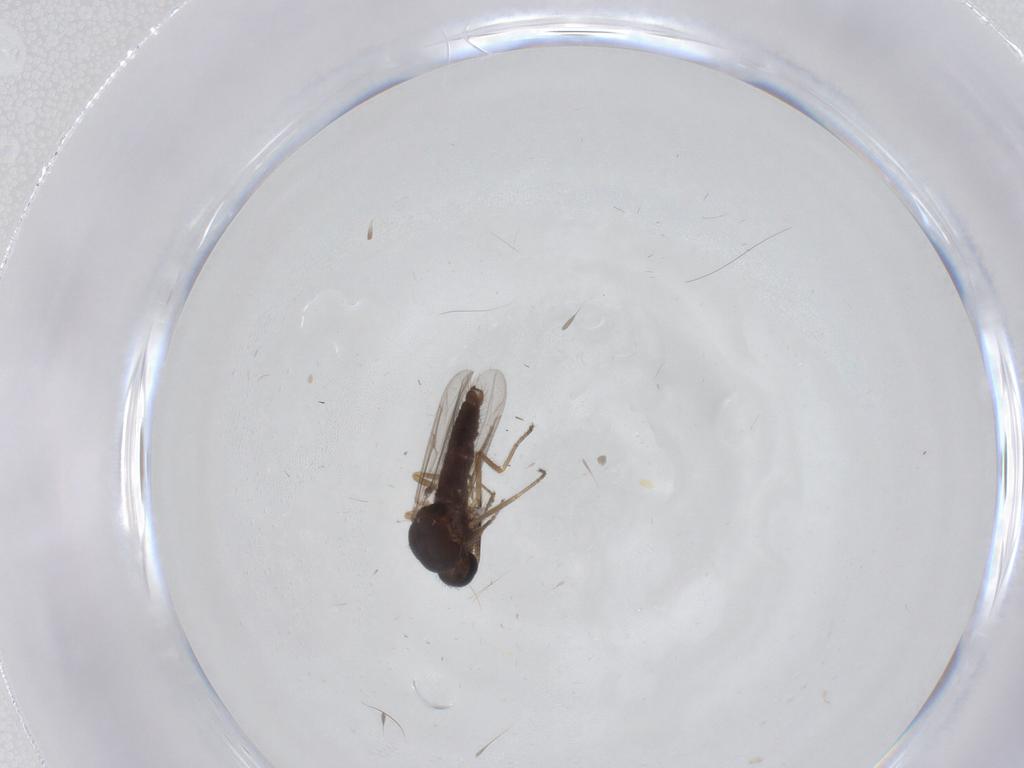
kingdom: Animalia
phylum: Arthropoda
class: Insecta
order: Diptera
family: Ceratopogonidae
